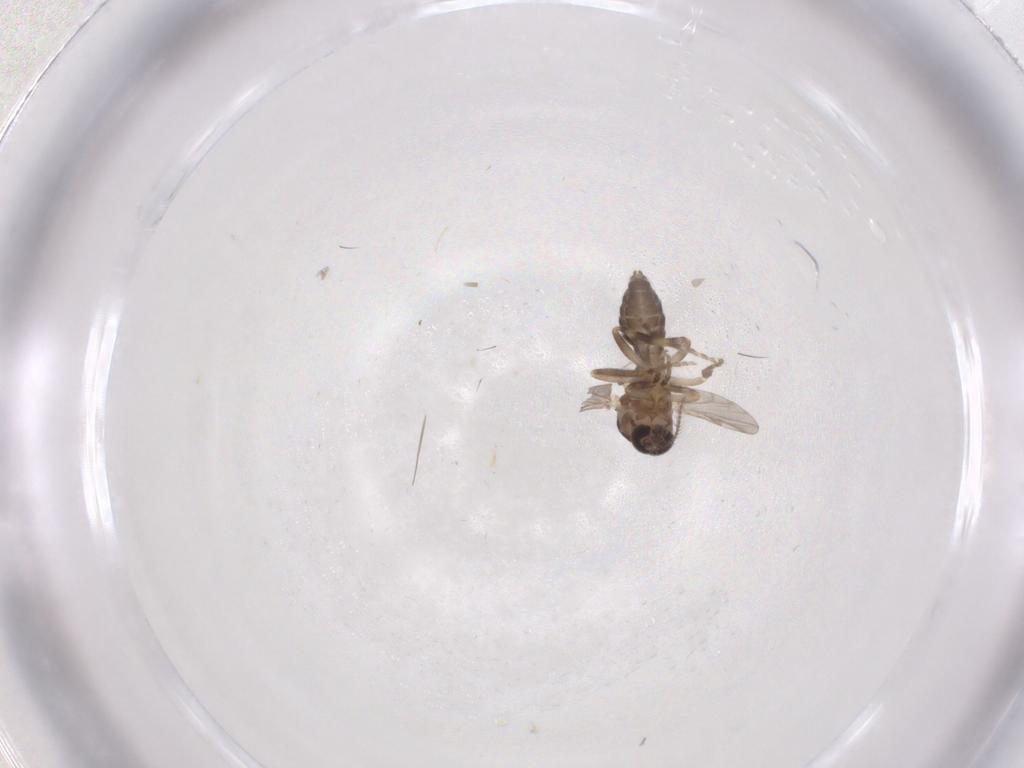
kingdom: Animalia
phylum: Arthropoda
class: Insecta
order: Diptera
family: Ceratopogonidae
